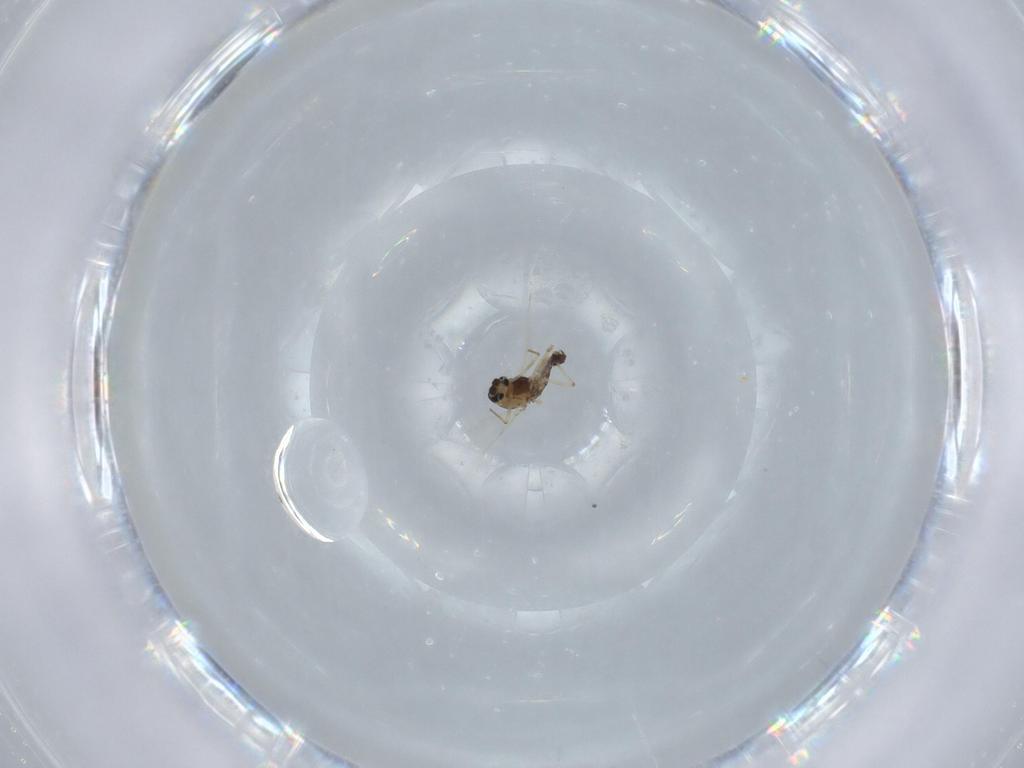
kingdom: Animalia
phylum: Arthropoda
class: Insecta
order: Diptera
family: Chironomidae
